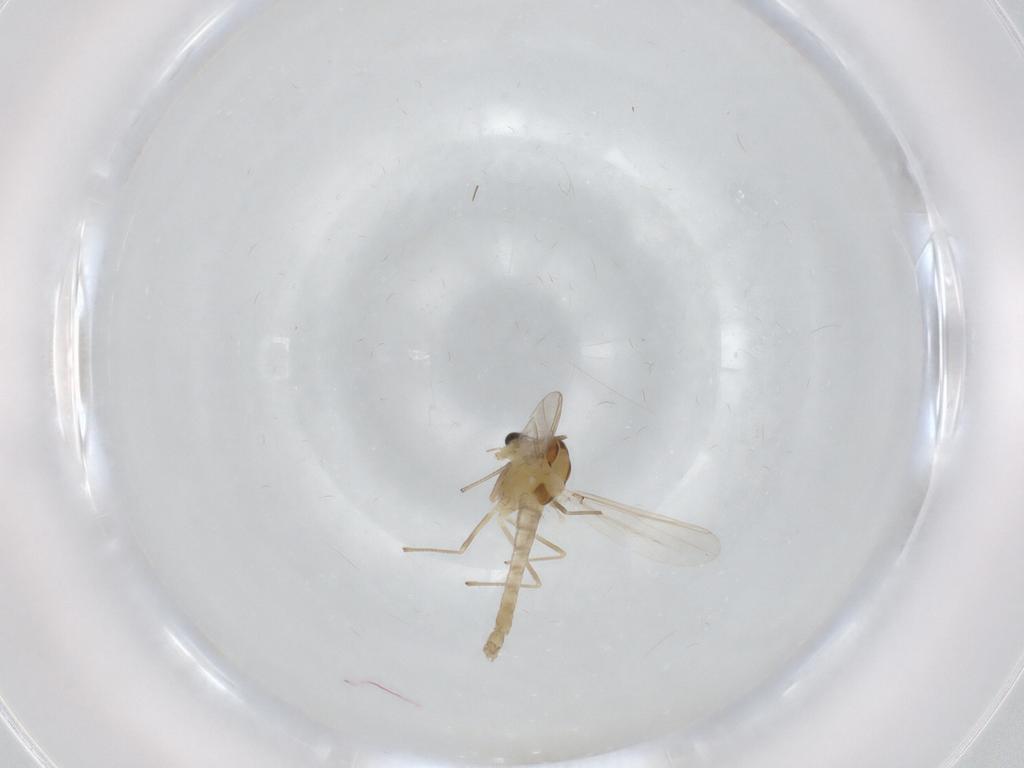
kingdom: Animalia
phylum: Arthropoda
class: Insecta
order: Diptera
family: Chironomidae
